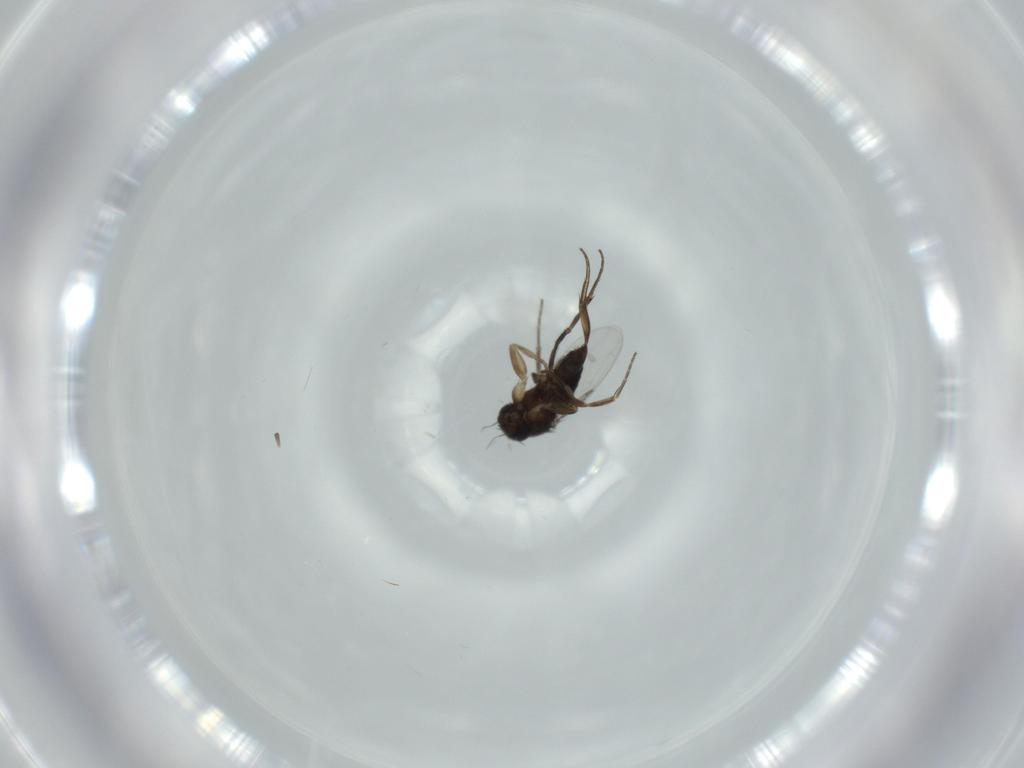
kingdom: Animalia
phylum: Arthropoda
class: Insecta
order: Diptera
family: Phoridae
